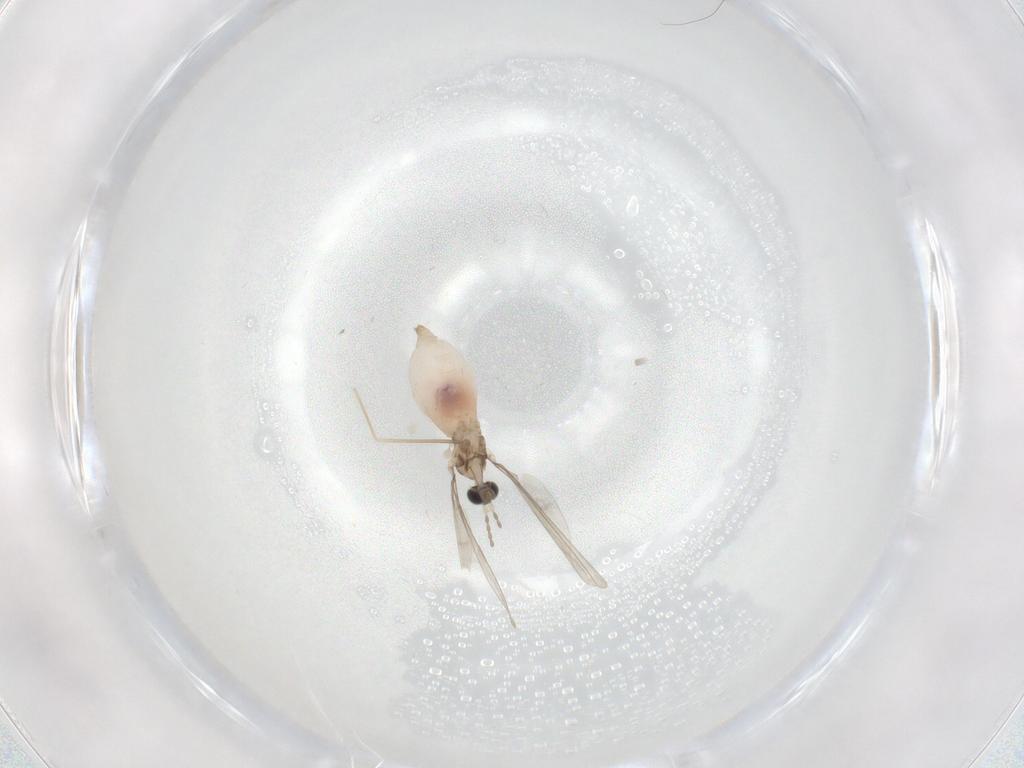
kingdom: Animalia
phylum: Arthropoda
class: Insecta
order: Diptera
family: Cecidomyiidae
